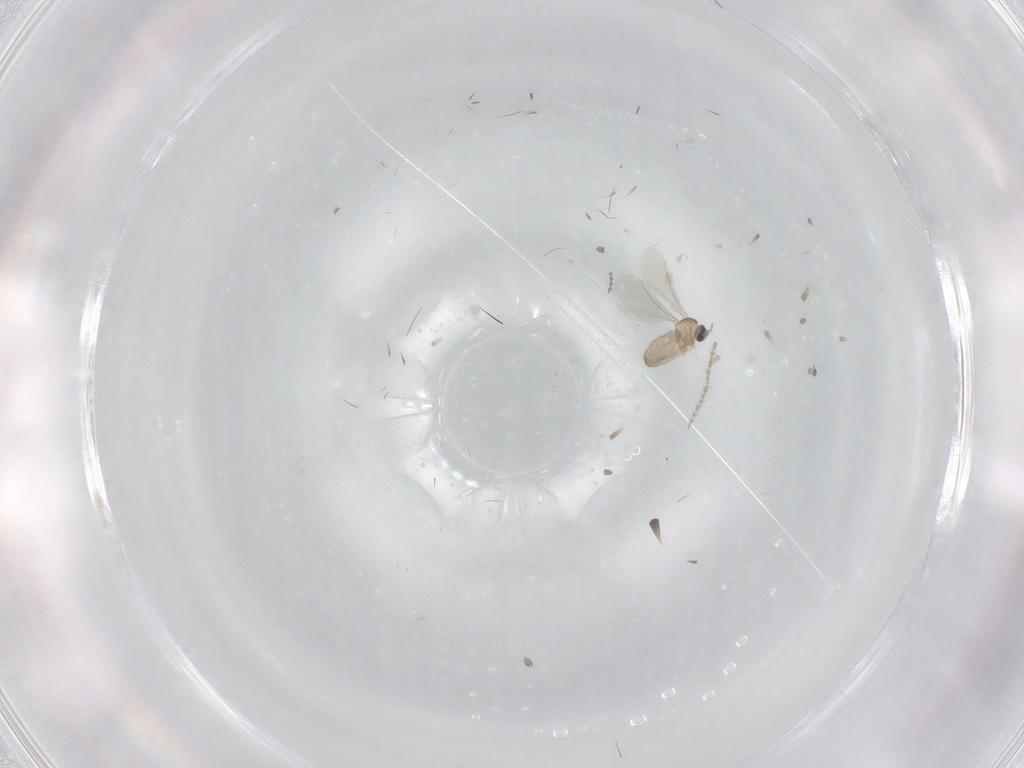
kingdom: Animalia
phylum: Arthropoda
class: Insecta
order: Diptera
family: Cecidomyiidae
